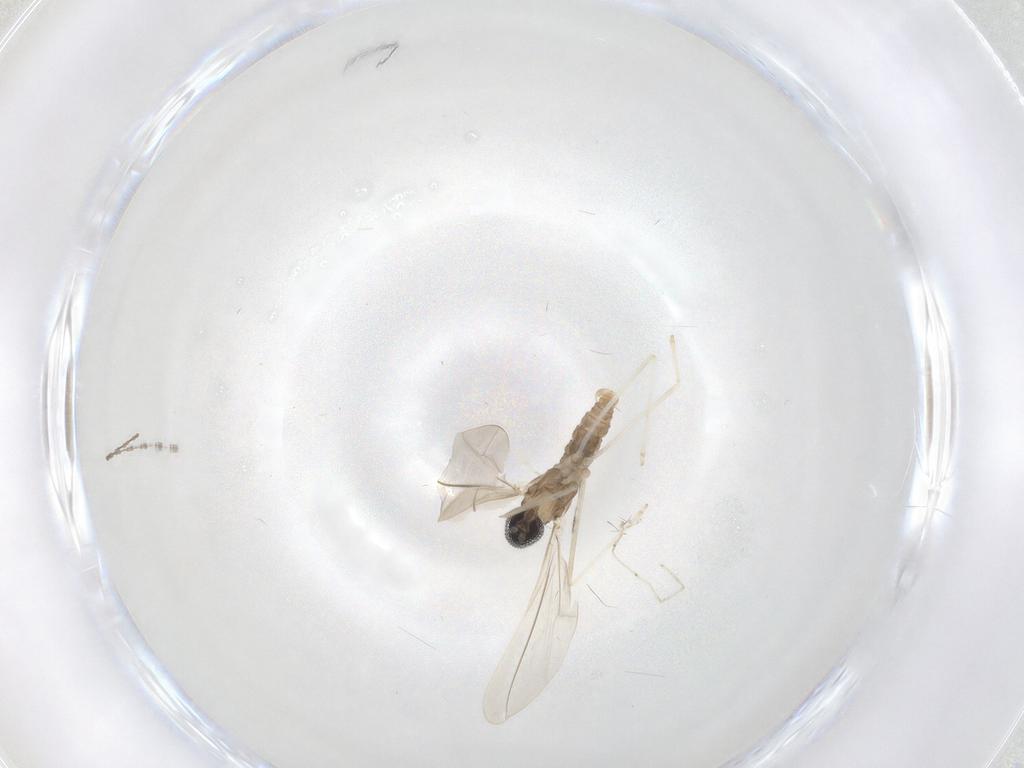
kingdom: Animalia
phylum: Arthropoda
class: Insecta
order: Diptera
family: Cecidomyiidae
